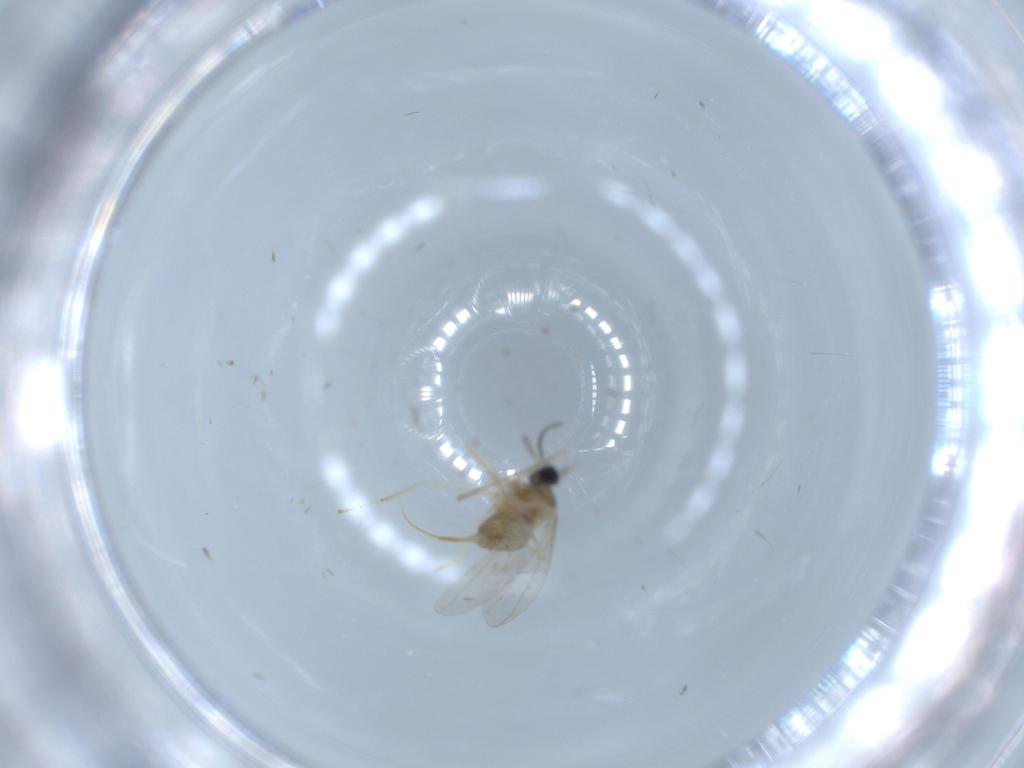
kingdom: Animalia
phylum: Arthropoda
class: Insecta
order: Diptera
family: Cecidomyiidae
